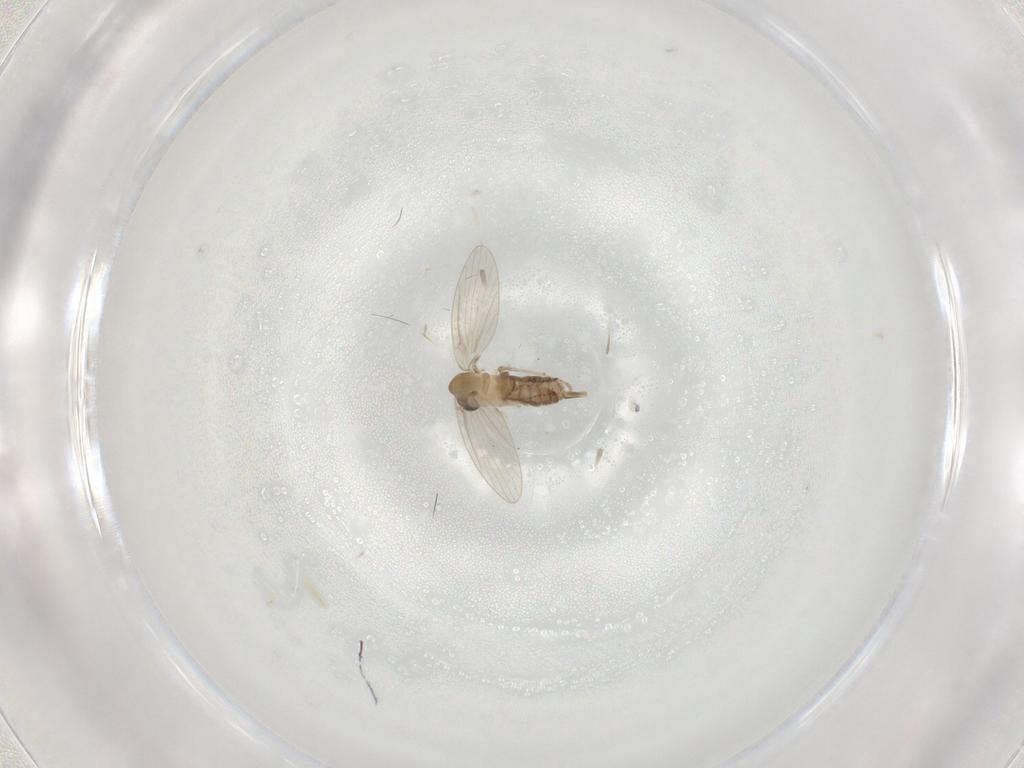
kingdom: Animalia
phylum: Arthropoda
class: Insecta
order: Diptera
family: Psychodidae
